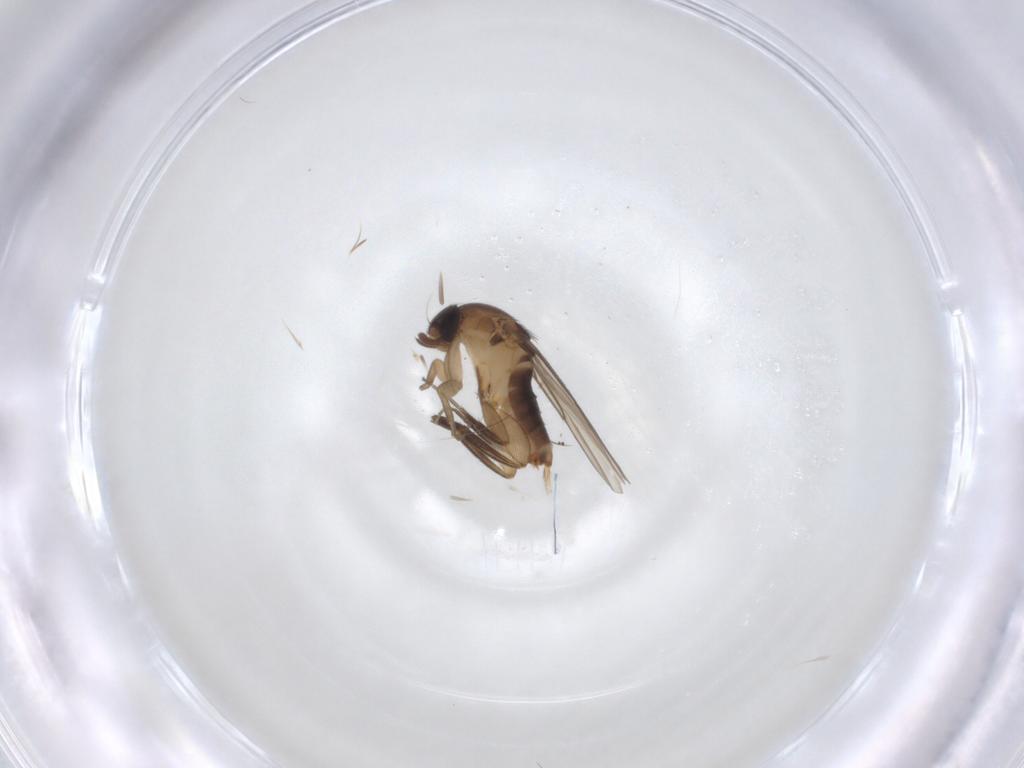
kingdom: Animalia
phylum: Arthropoda
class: Insecta
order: Diptera
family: Phoridae
